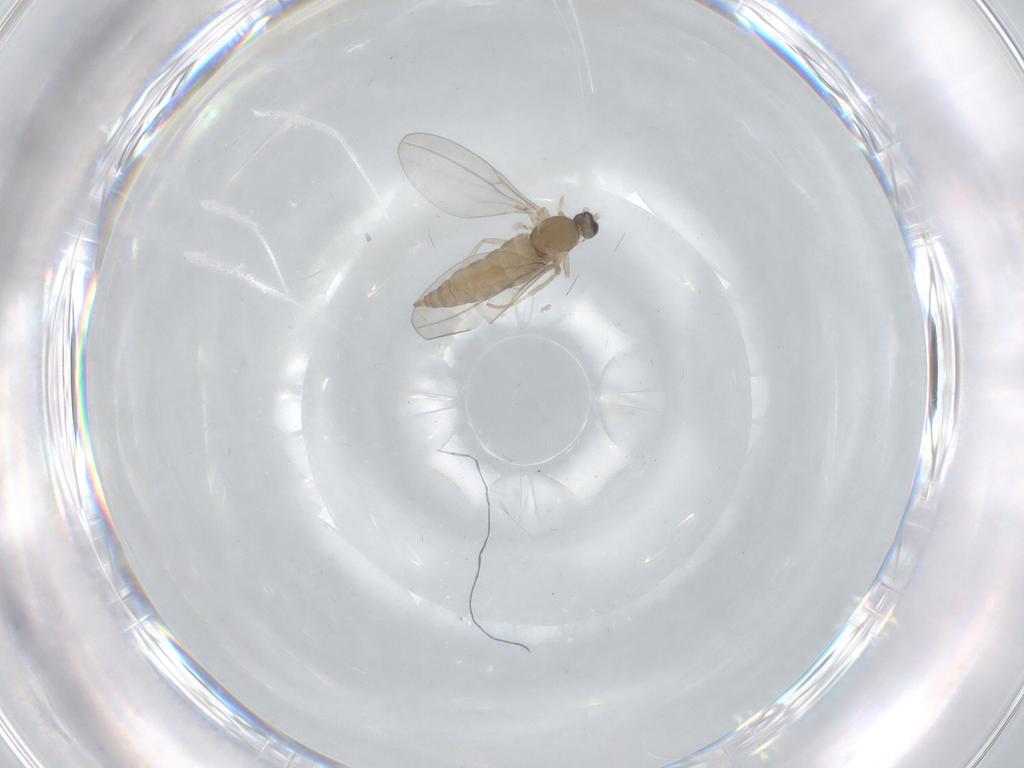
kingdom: Animalia
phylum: Arthropoda
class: Insecta
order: Diptera
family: Cecidomyiidae
